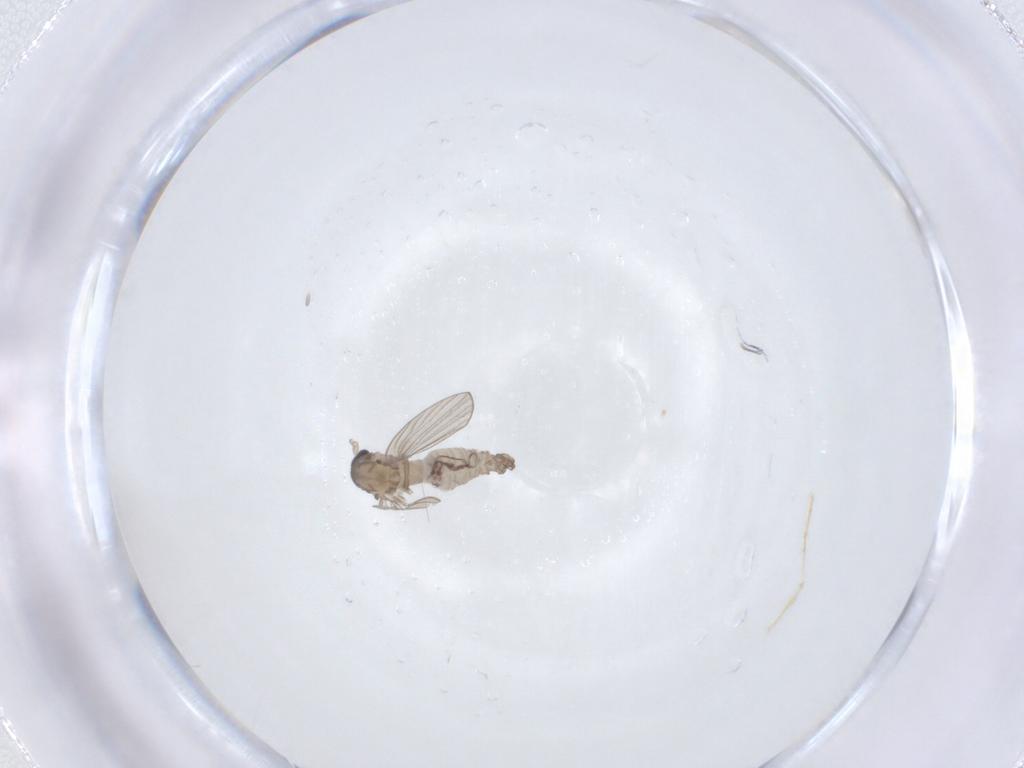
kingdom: Animalia
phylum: Arthropoda
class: Insecta
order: Diptera
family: Psychodidae
